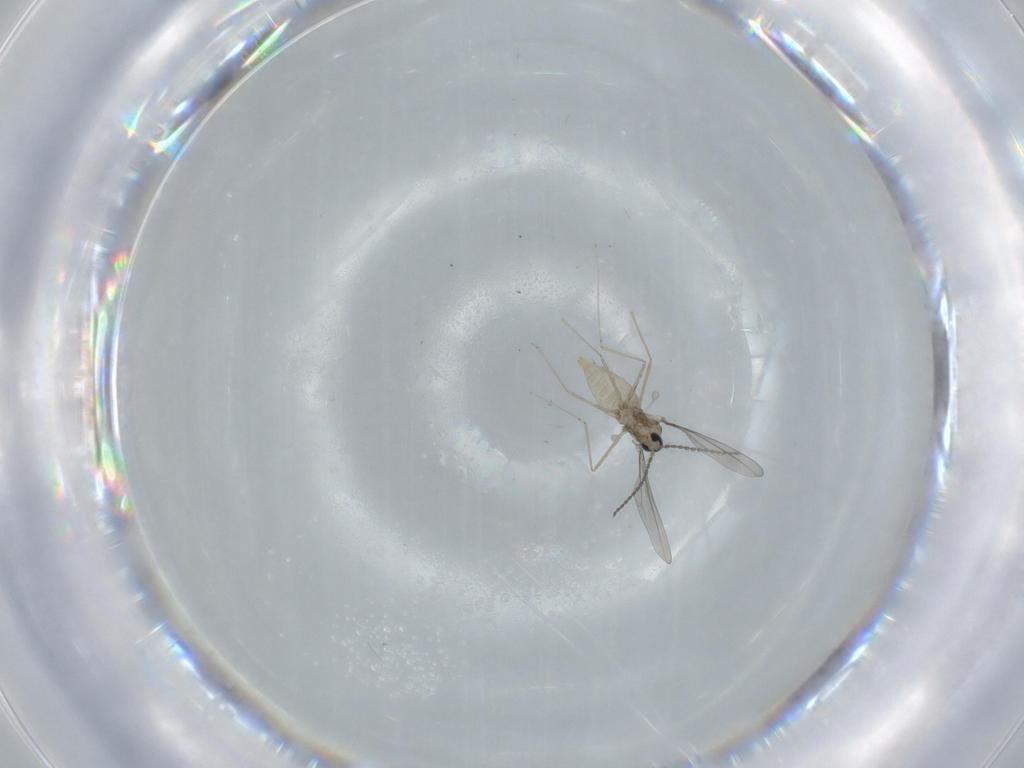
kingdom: Animalia
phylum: Arthropoda
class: Insecta
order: Diptera
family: Cecidomyiidae
